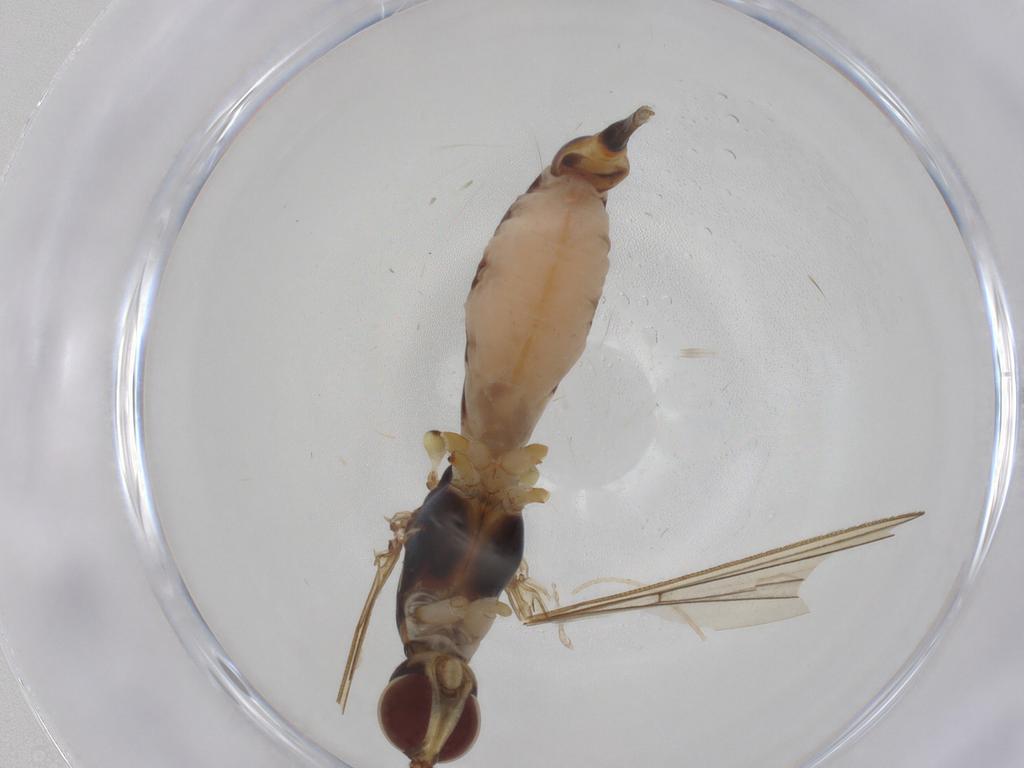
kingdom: Animalia
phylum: Arthropoda
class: Insecta
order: Diptera
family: Micropezidae
